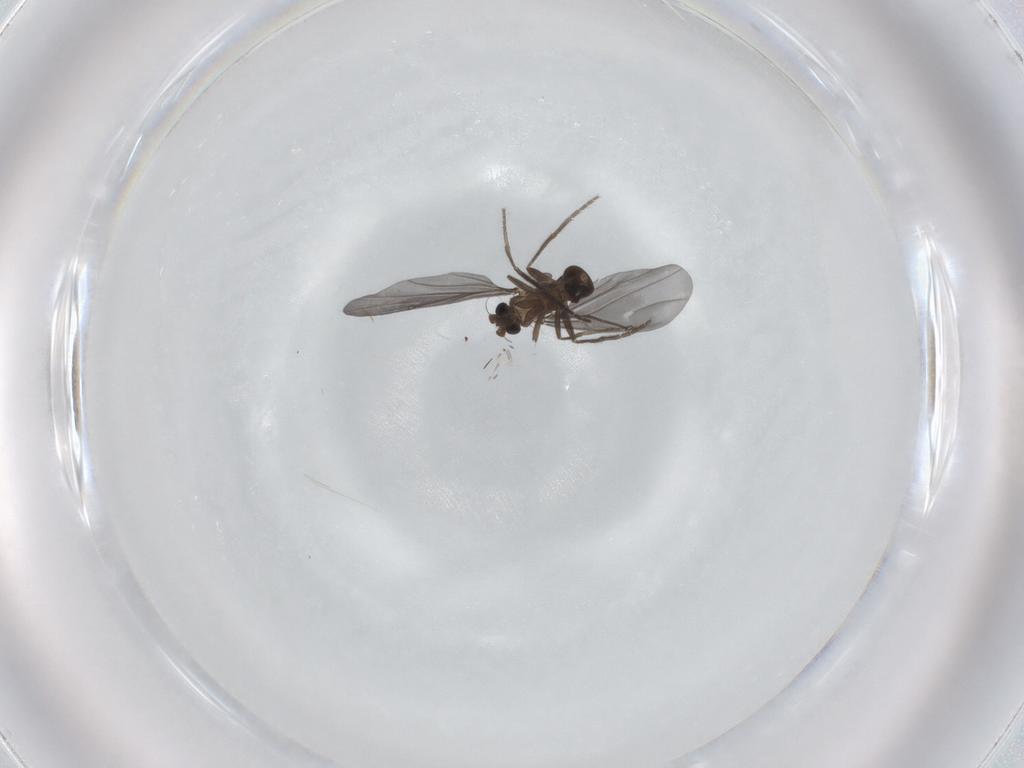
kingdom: Animalia
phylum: Arthropoda
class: Insecta
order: Diptera
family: Phoridae
